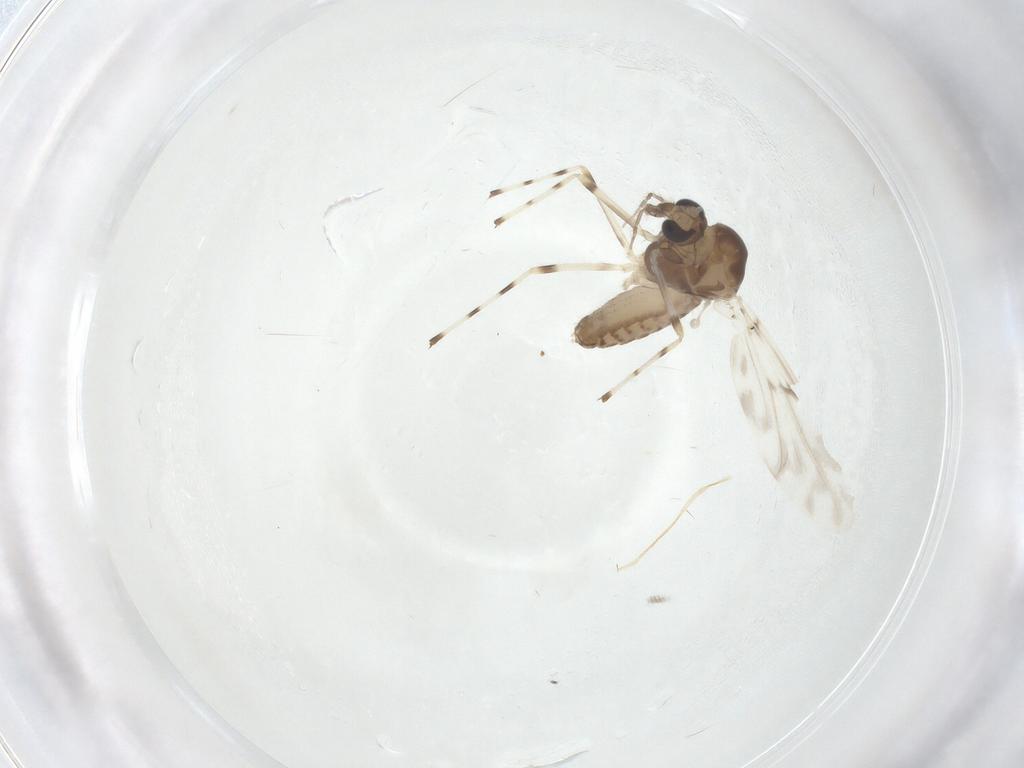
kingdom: Animalia
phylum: Arthropoda
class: Insecta
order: Diptera
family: Chironomidae
